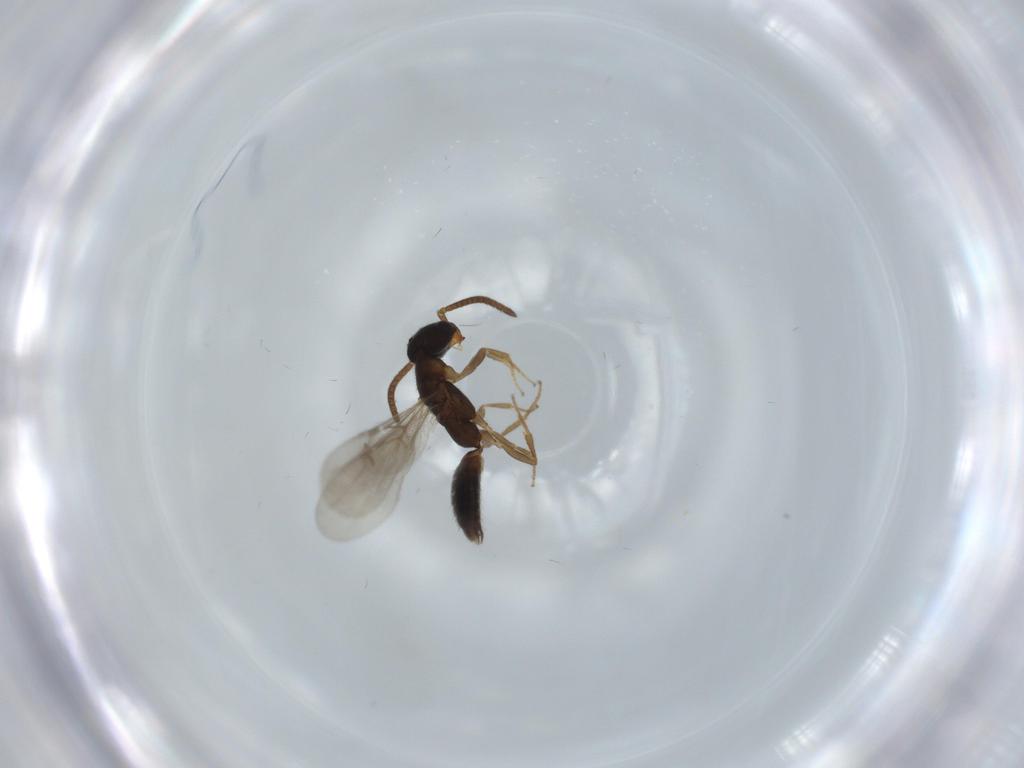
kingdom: Animalia
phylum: Arthropoda
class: Insecta
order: Hymenoptera
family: Bethylidae
